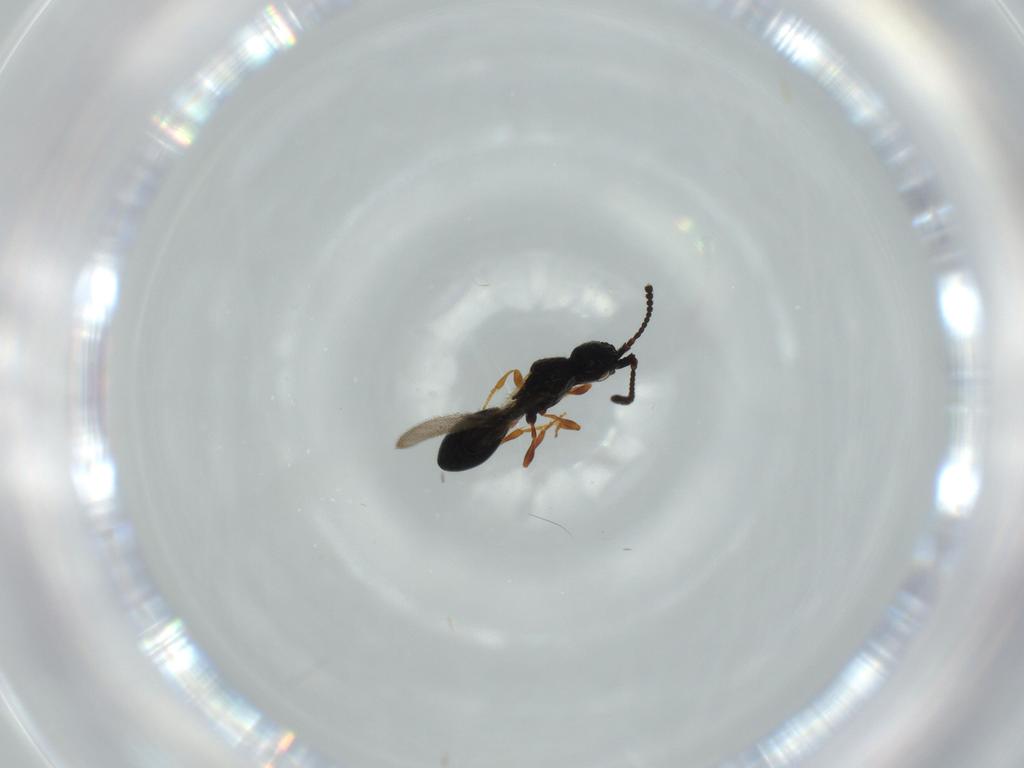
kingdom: Animalia
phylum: Arthropoda
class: Insecta
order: Hymenoptera
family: Diapriidae
